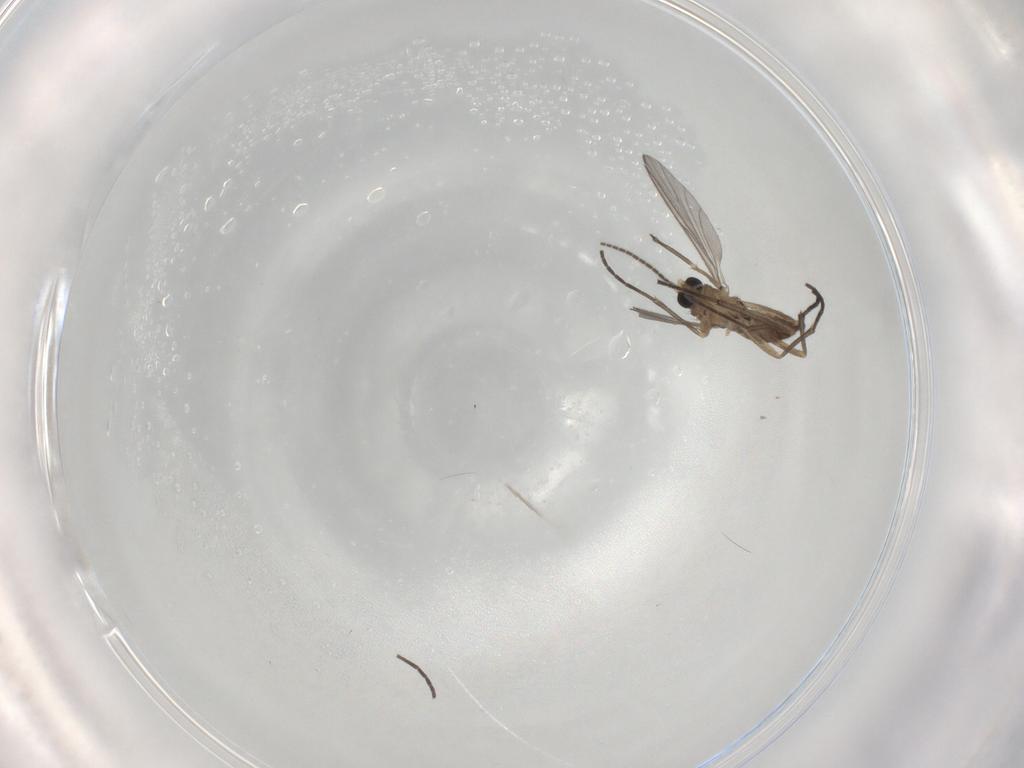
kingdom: Animalia
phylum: Arthropoda
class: Insecta
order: Diptera
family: Sciaridae
